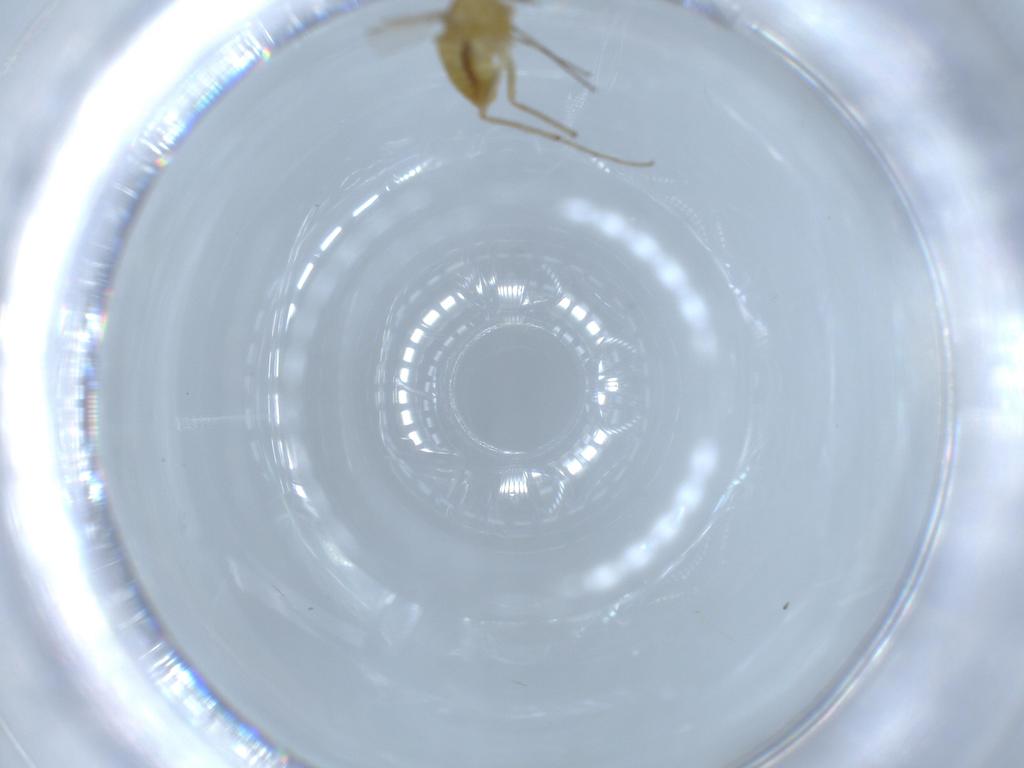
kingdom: Animalia
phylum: Arthropoda
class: Insecta
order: Diptera
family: Chironomidae
